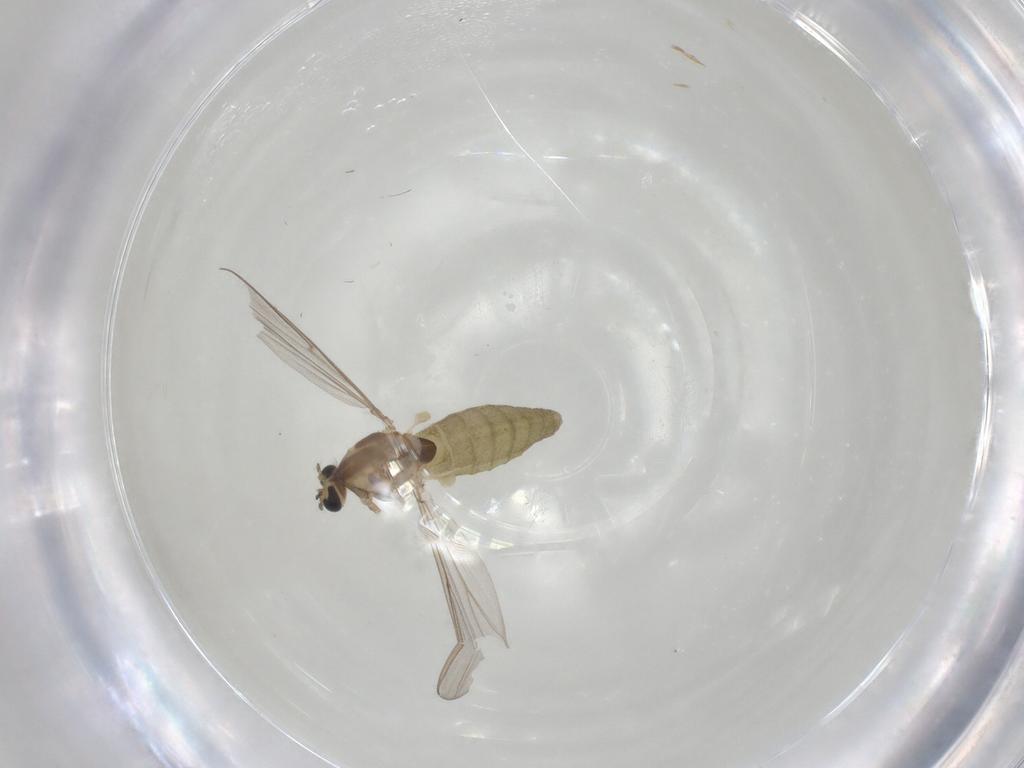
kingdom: Animalia
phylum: Arthropoda
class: Insecta
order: Diptera
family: Chironomidae
